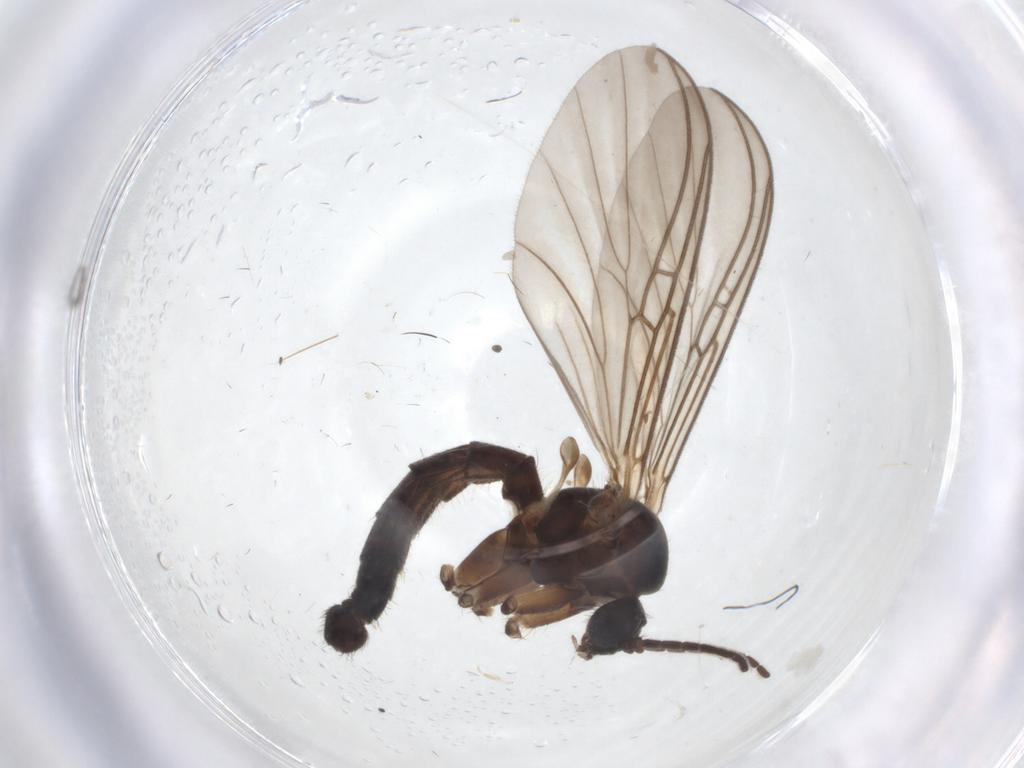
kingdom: Animalia
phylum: Arthropoda
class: Insecta
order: Diptera
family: Mycetophilidae
